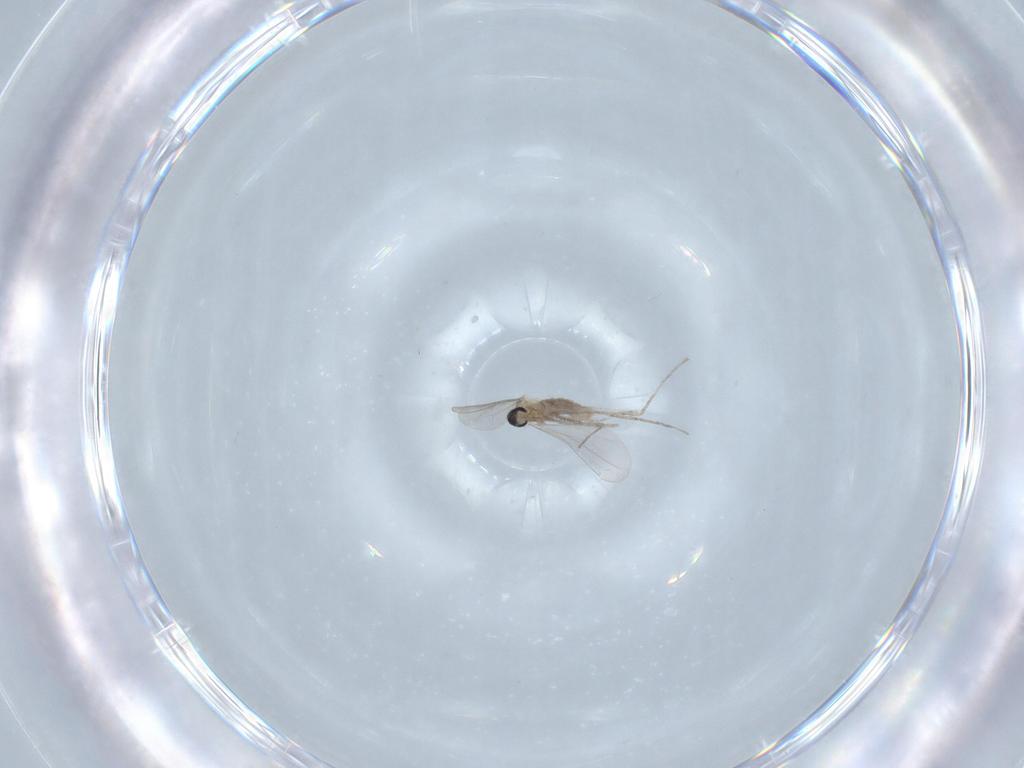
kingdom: Animalia
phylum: Arthropoda
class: Insecta
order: Diptera
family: Cecidomyiidae
